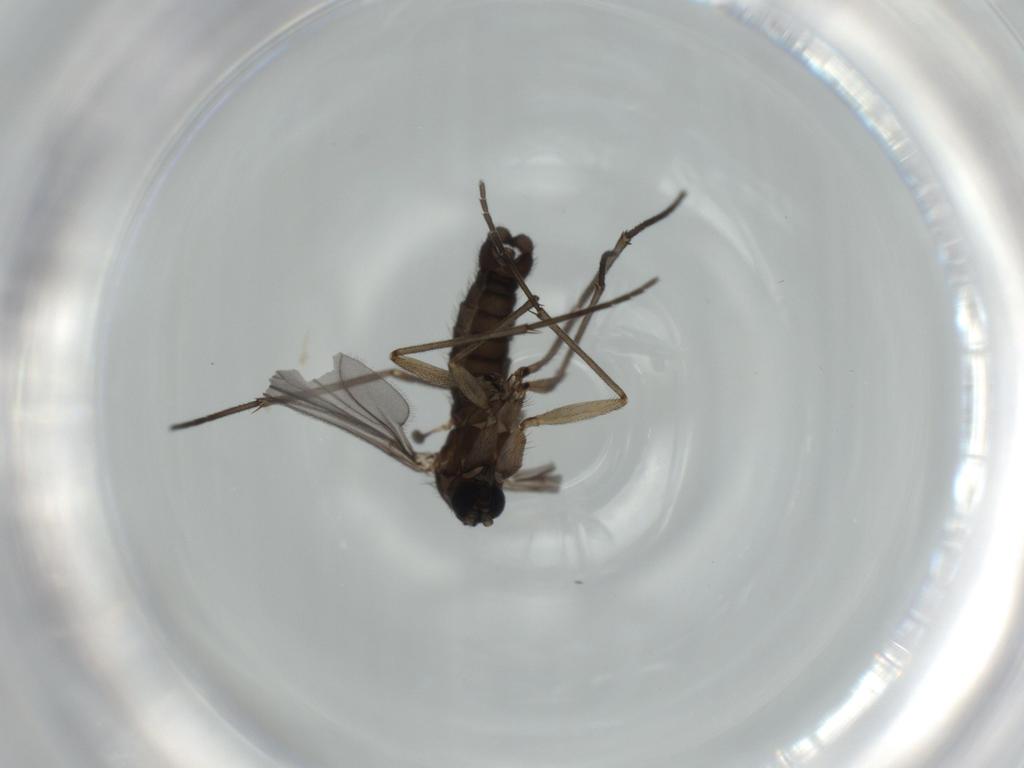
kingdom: Animalia
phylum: Arthropoda
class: Insecta
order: Diptera
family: Sciaridae
